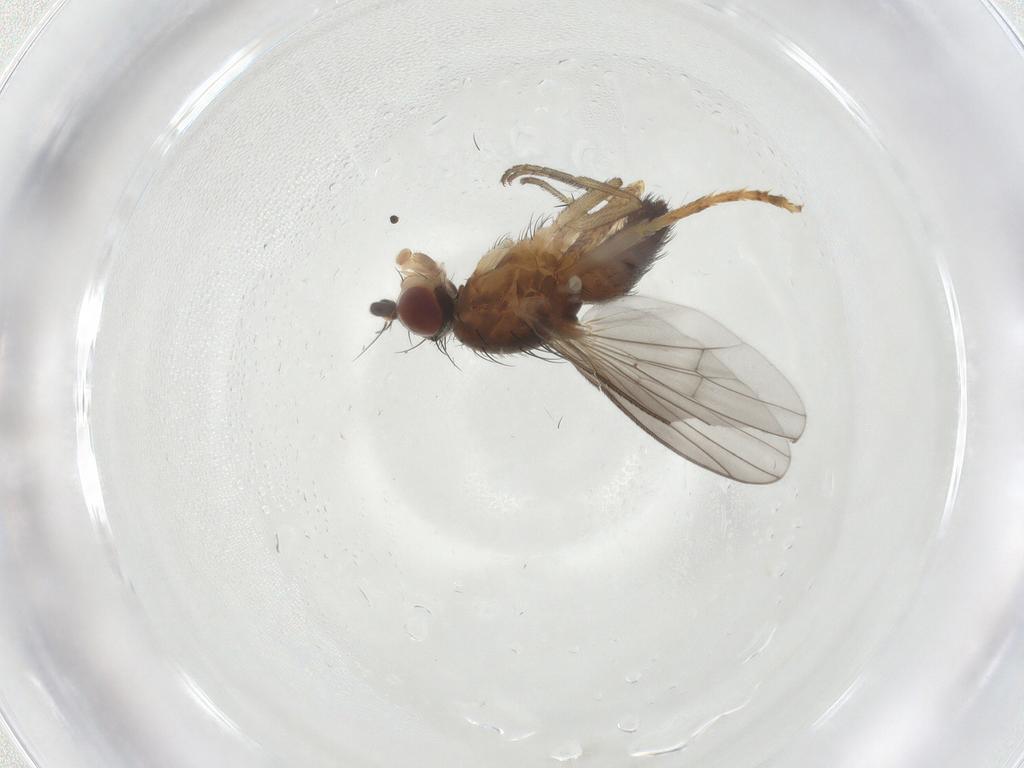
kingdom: Animalia
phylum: Arthropoda
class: Insecta
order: Diptera
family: Heleomyzidae
